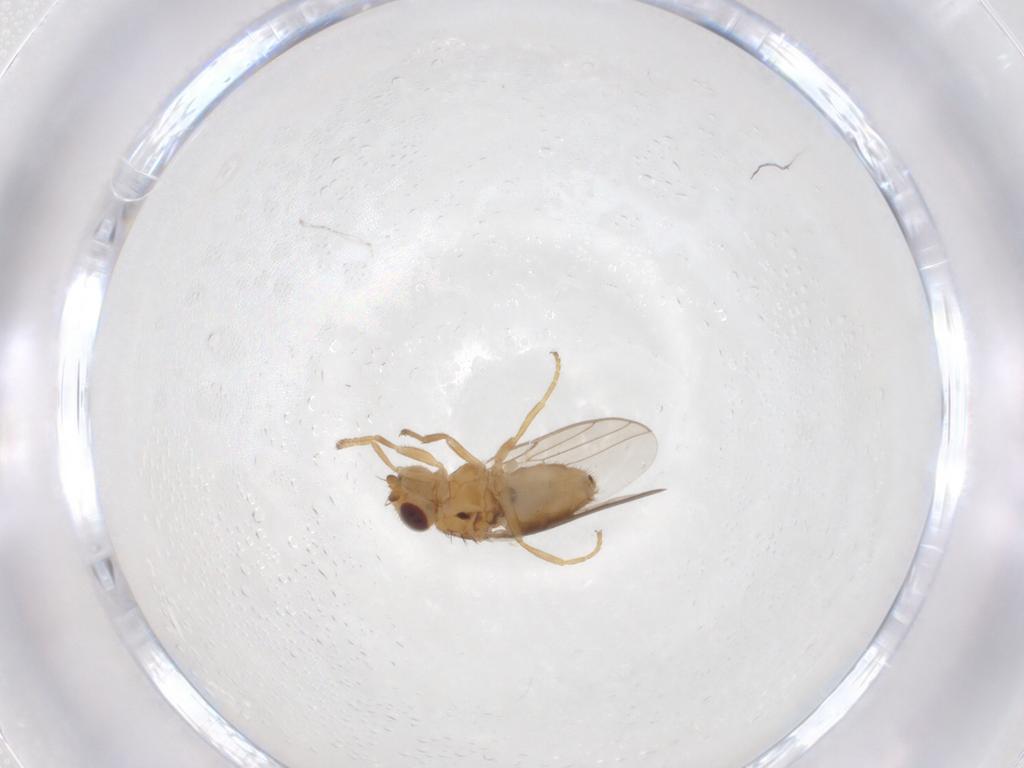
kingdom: Animalia
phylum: Arthropoda
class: Insecta
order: Diptera
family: Chloropidae
